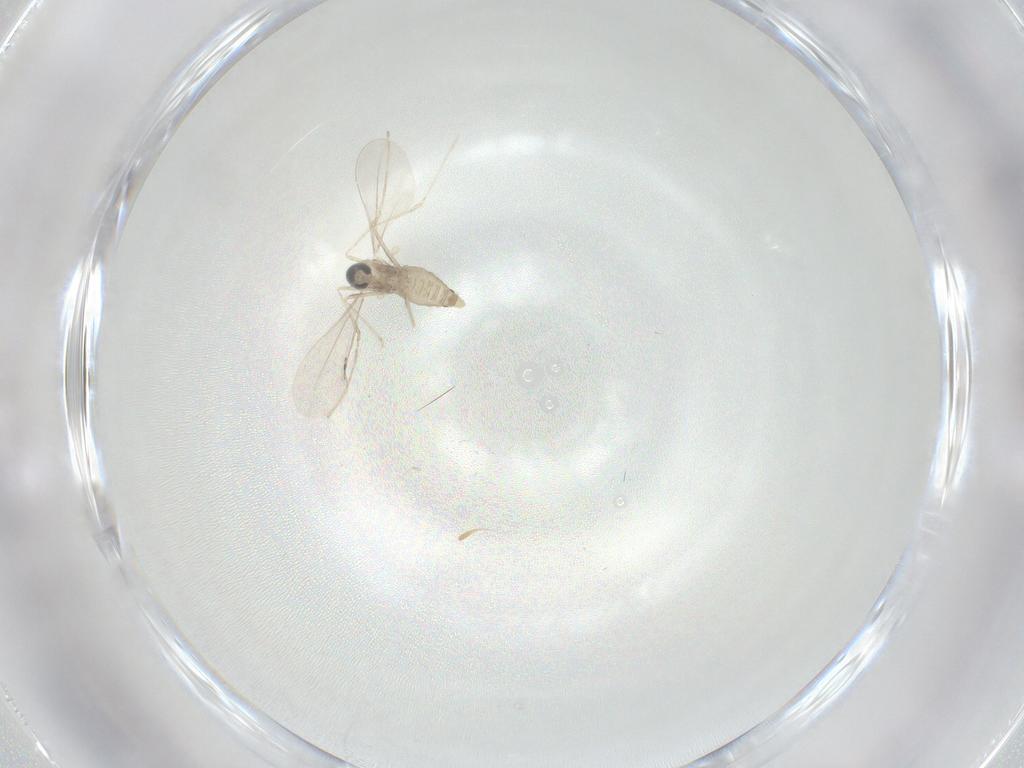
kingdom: Animalia
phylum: Arthropoda
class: Insecta
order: Diptera
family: Cecidomyiidae
